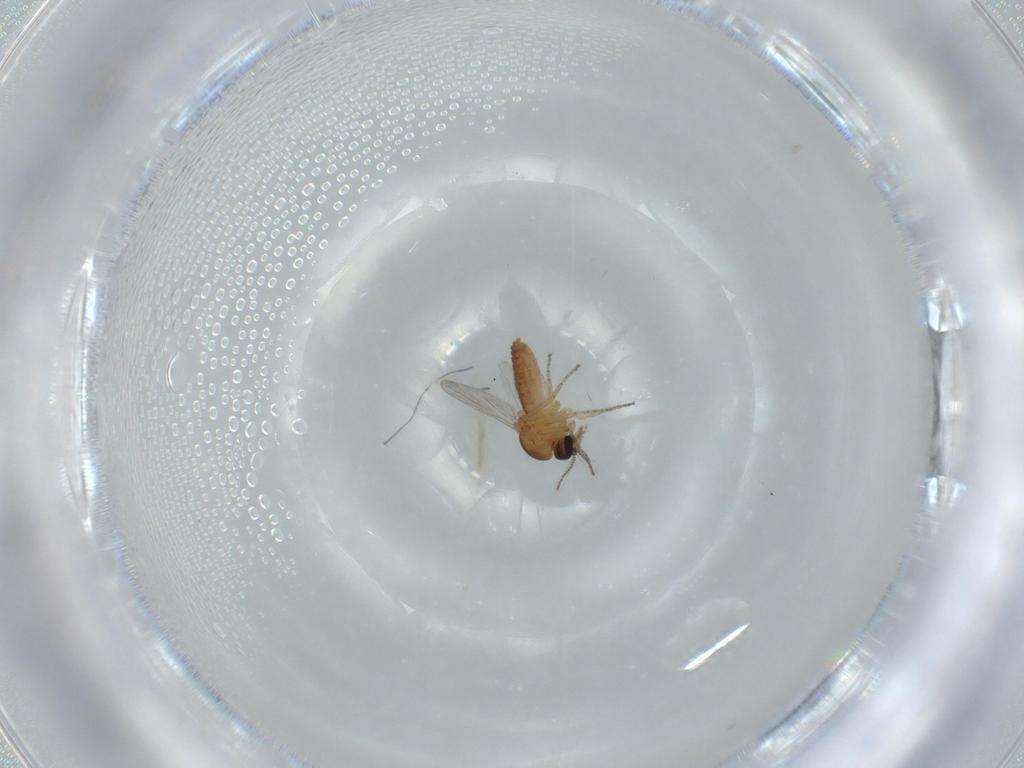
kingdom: Animalia
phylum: Arthropoda
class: Insecta
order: Diptera
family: Ceratopogonidae
